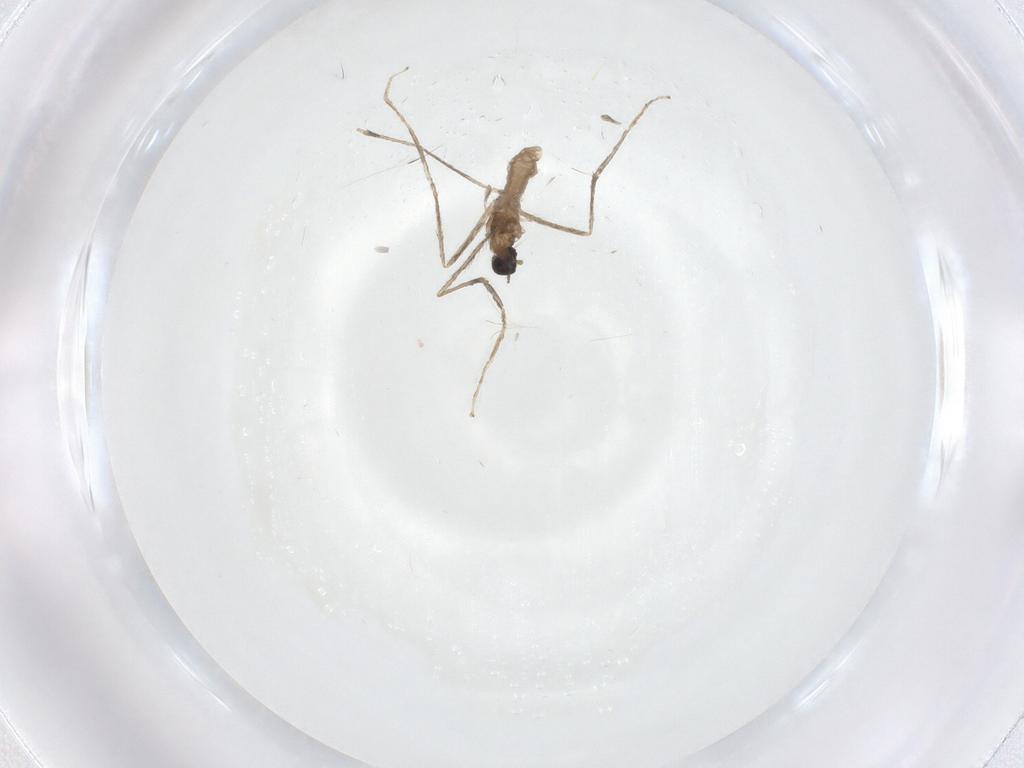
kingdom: Animalia
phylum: Arthropoda
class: Insecta
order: Diptera
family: Cecidomyiidae
